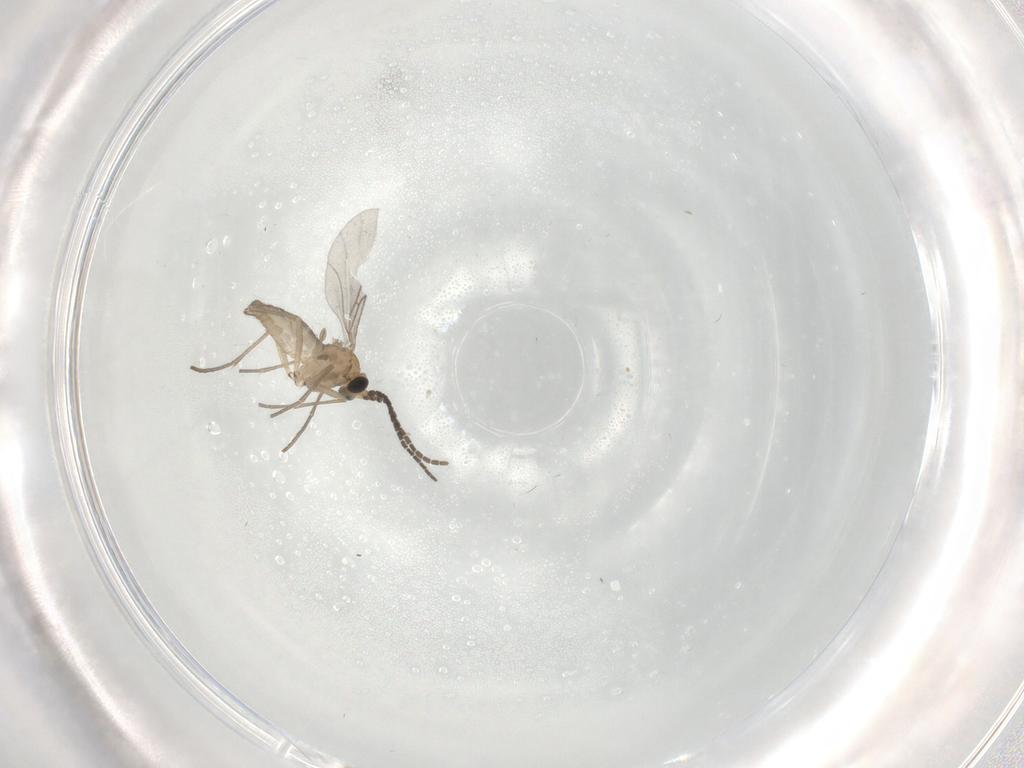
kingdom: Animalia
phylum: Arthropoda
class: Insecta
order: Diptera
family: Sciaridae
